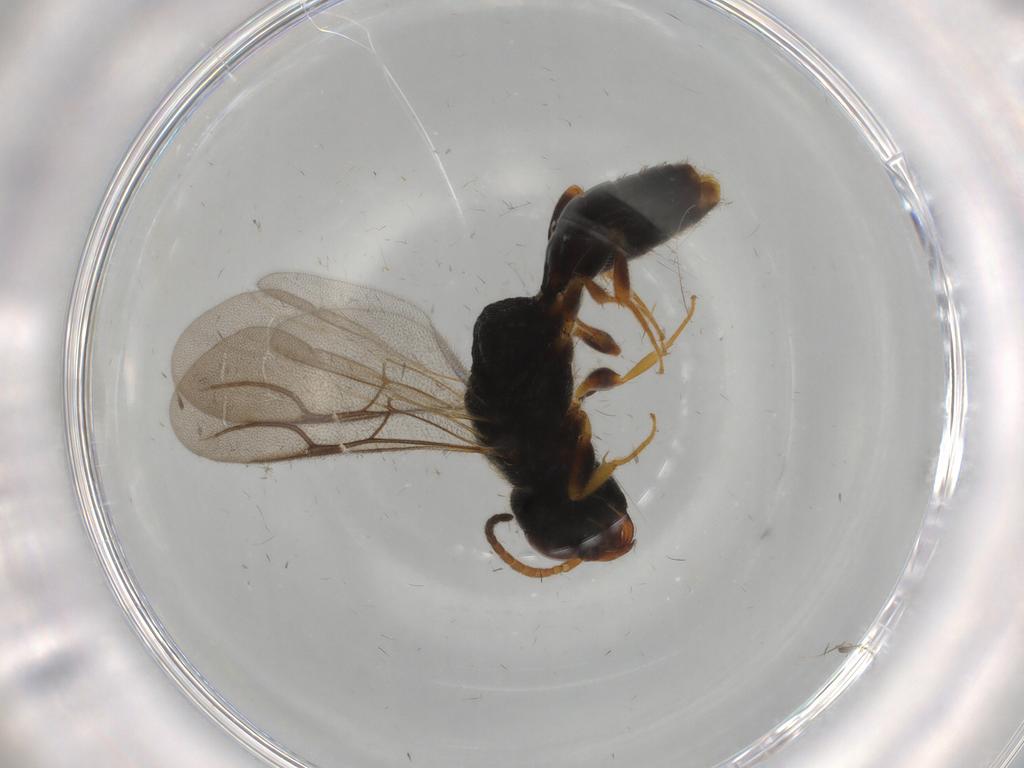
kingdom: Animalia
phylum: Arthropoda
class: Insecta
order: Hymenoptera
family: Bethylidae
